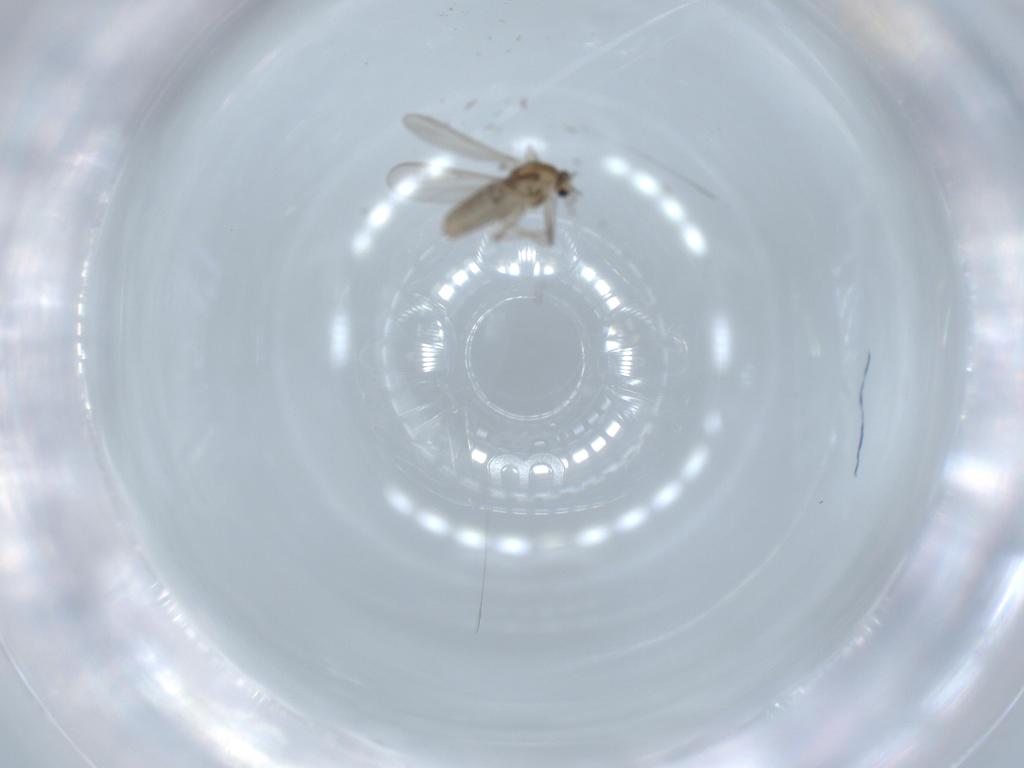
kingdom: Animalia
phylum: Arthropoda
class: Insecta
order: Diptera
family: Chironomidae
